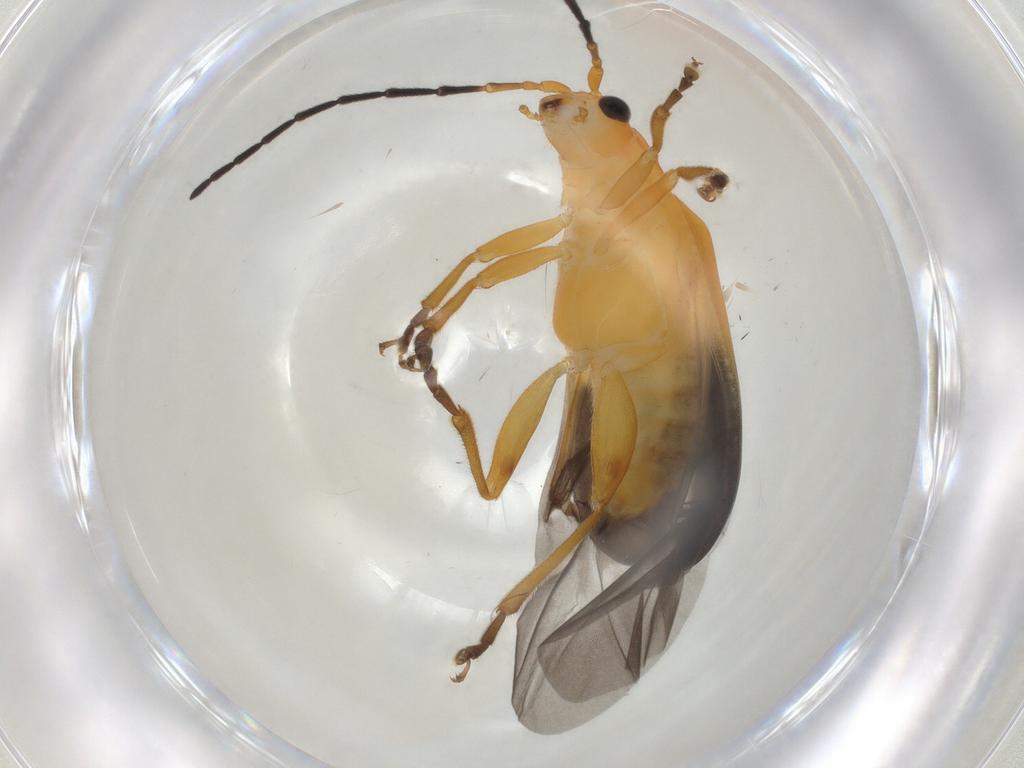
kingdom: Animalia
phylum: Arthropoda
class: Insecta
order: Coleoptera
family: Chrysomelidae
